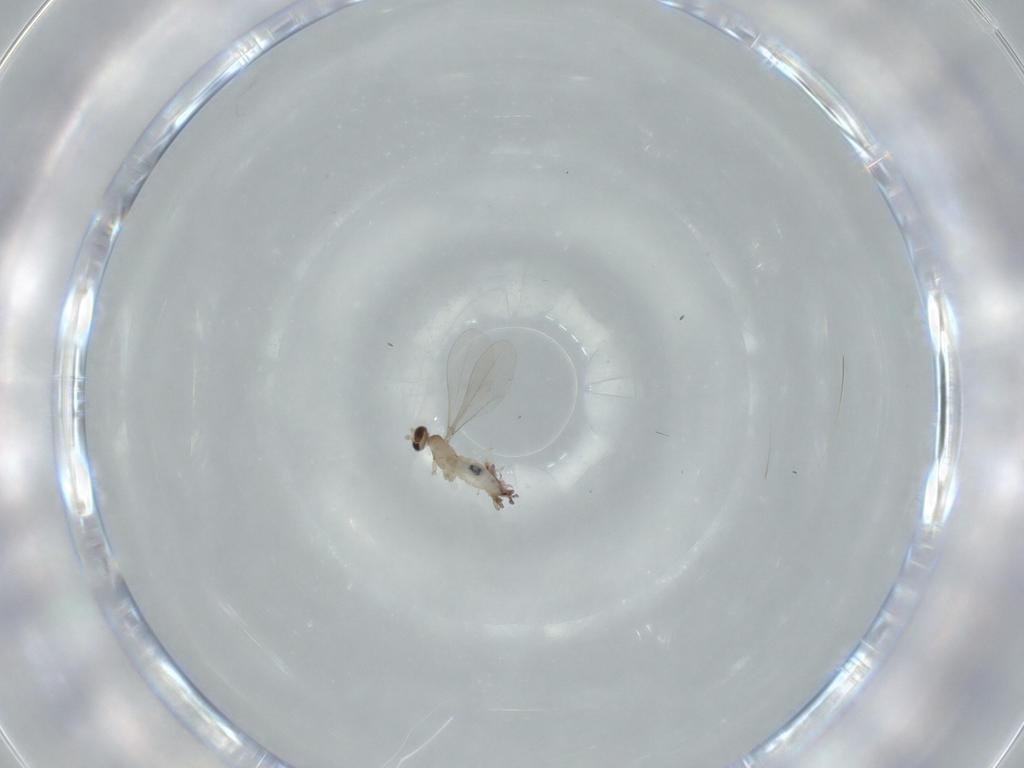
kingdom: Animalia
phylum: Arthropoda
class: Insecta
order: Diptera
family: Cecidomyiidae
